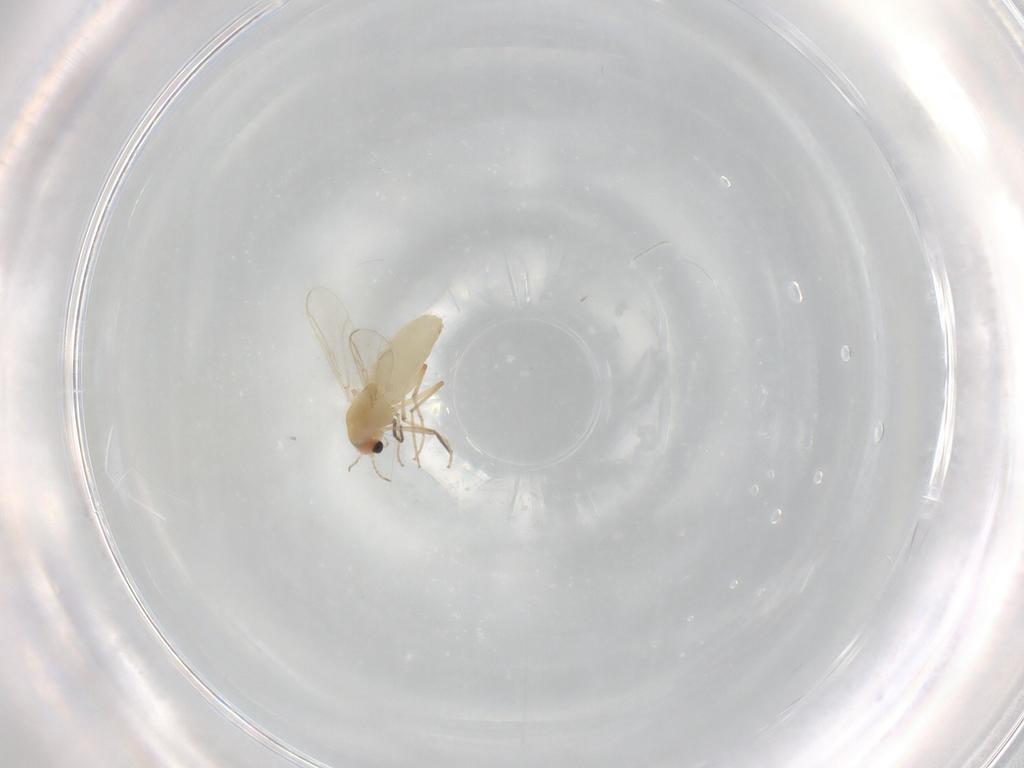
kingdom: Animalia
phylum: Arthropoda
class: Insecta
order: Diptera
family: Chironomidae
